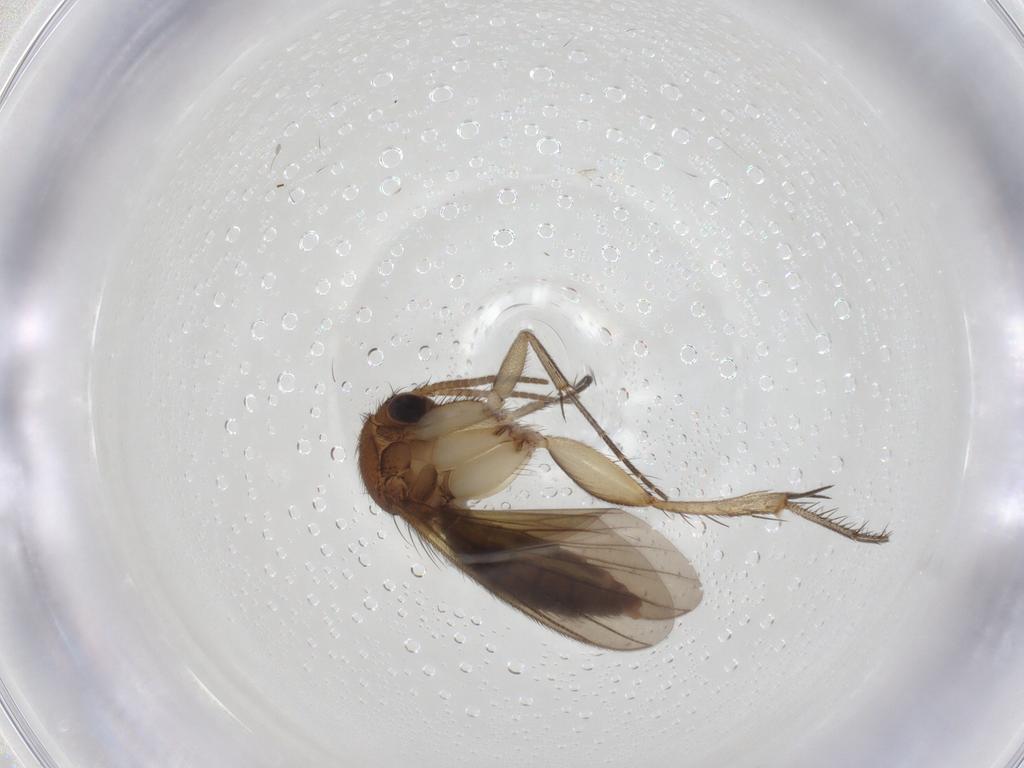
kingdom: Animalia
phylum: Arthropoda
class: Insecta
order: Diptera
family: Mycetophilidae
